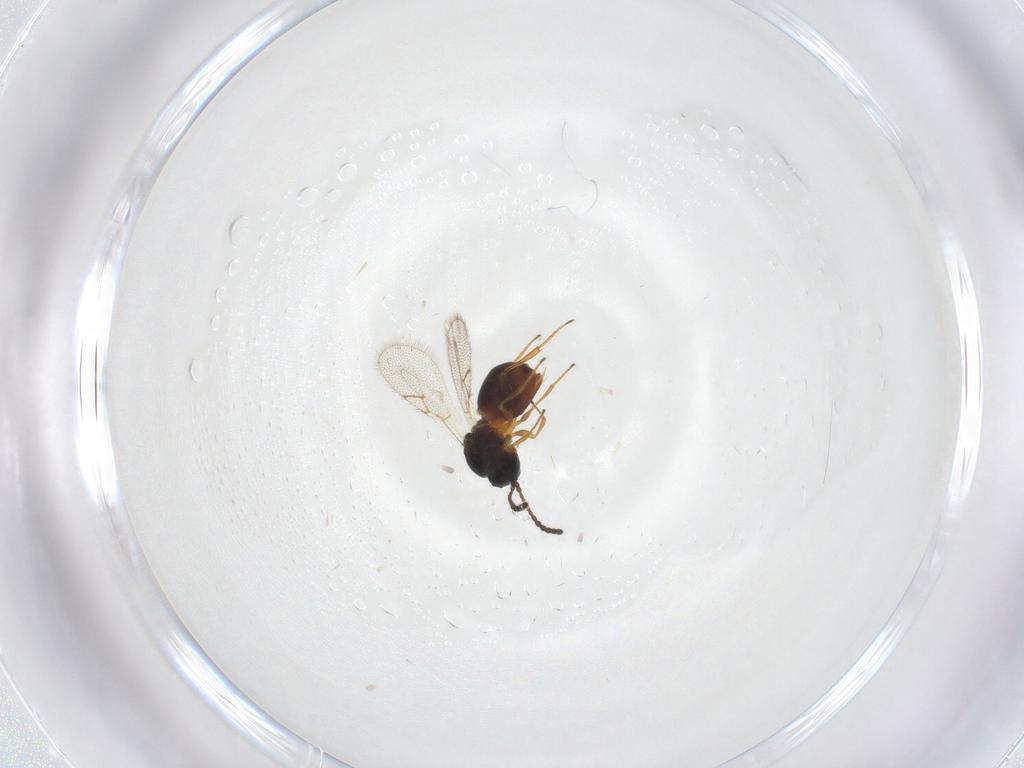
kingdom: Animalia
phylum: Arthropoda
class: Insecta
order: Hymenoptera
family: Figitidae
